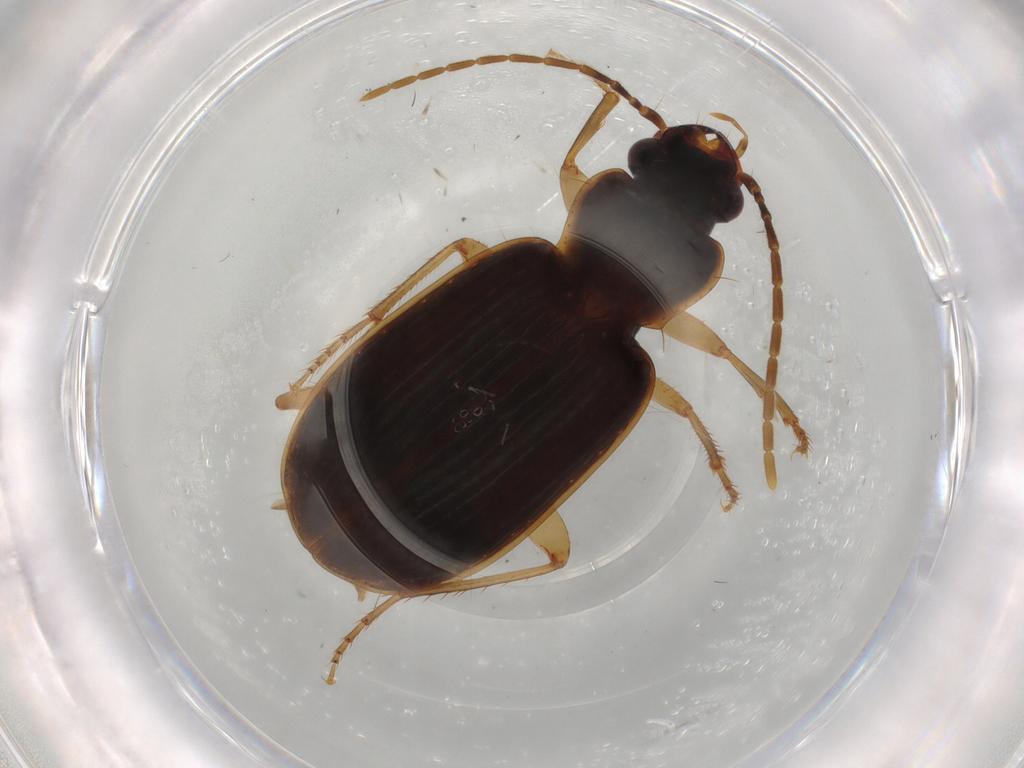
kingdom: Animalia
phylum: Arthropoda
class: Insecta
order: Coleoptera
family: Carabidae
